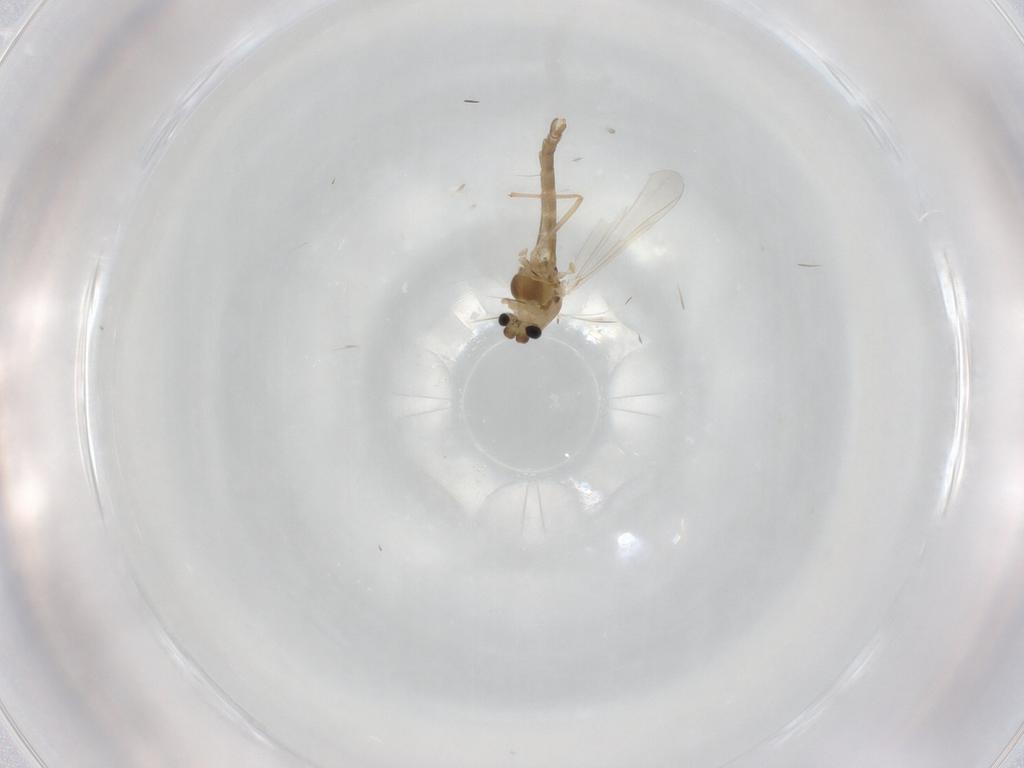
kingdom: Animalia
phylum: Arthropoda
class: Insecta
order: Diptera
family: Chironomidae
